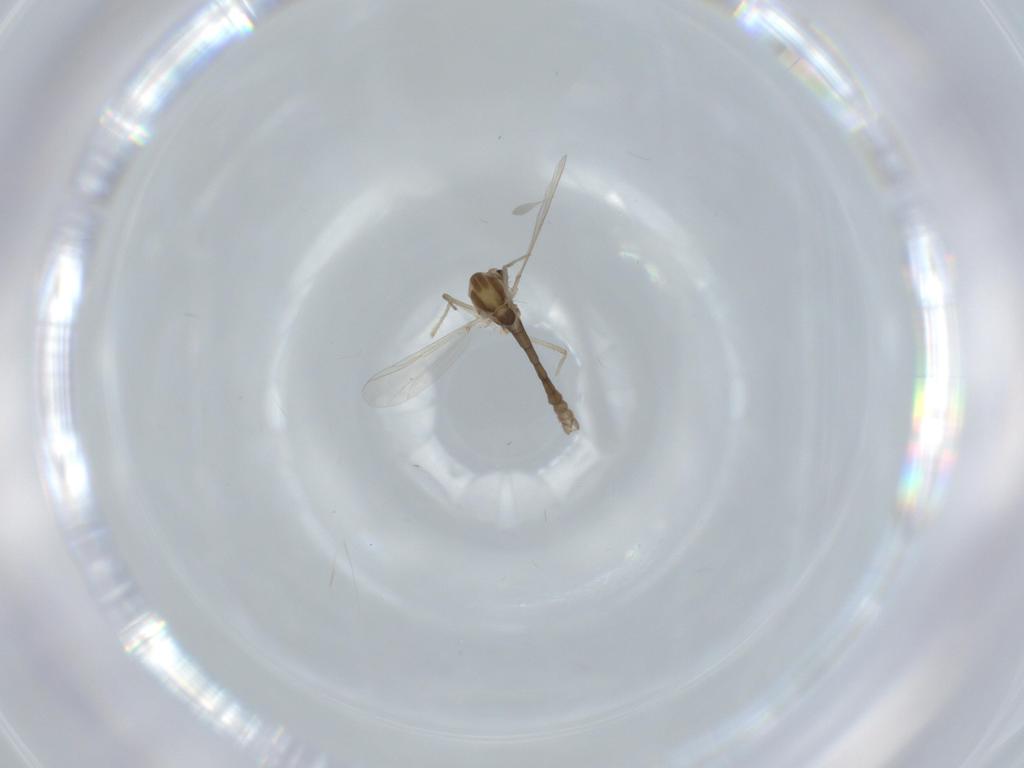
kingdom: Animalia
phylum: Arthropoda
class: Insecta
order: Diptera
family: Chironomidae
